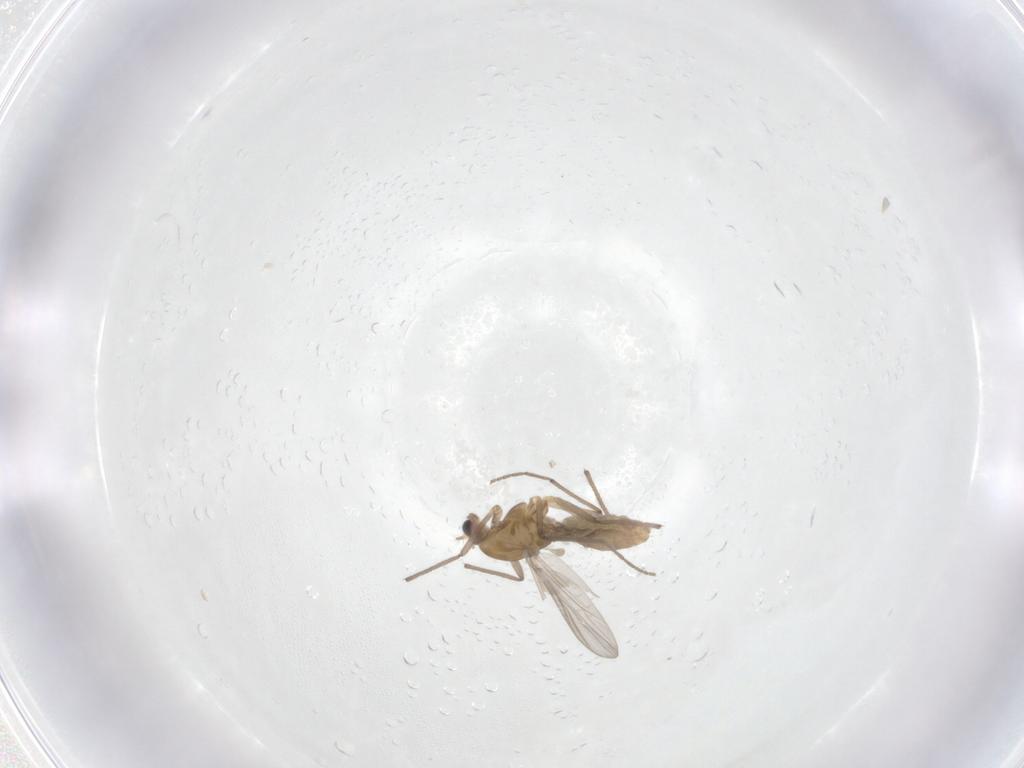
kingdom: Animalia
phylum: Arthropoda
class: Insecta
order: Diptera
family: Chironomidae
